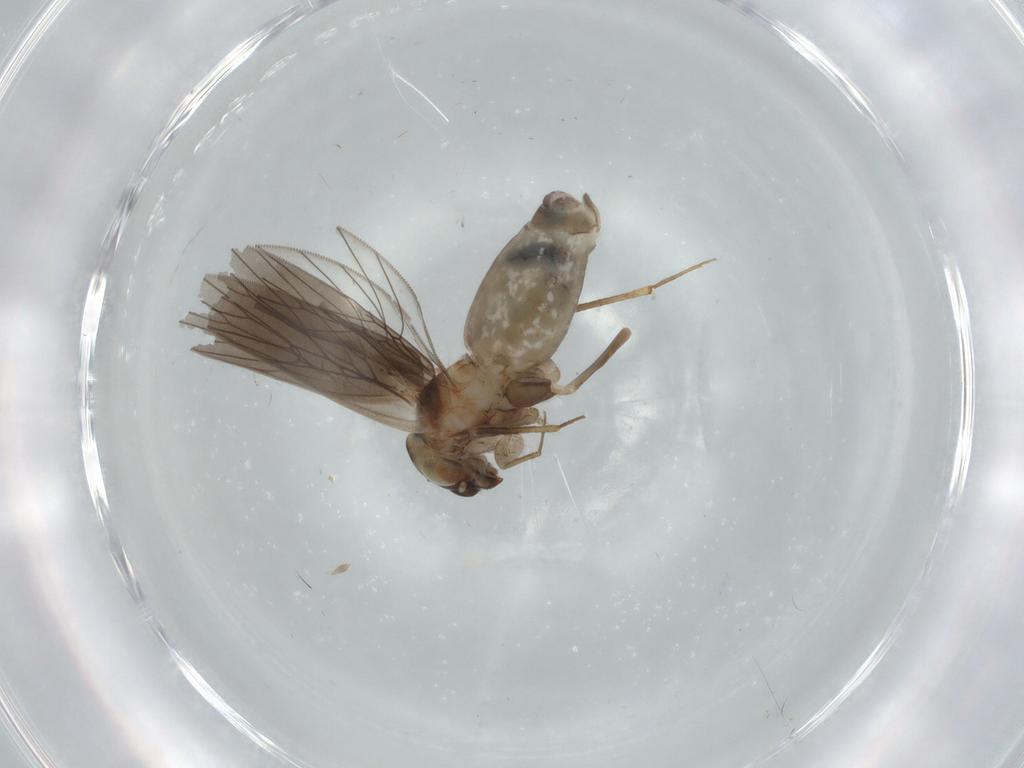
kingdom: Animalia
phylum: Arthropoda
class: Insecta
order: Psocodea
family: Lepidopsocidae
